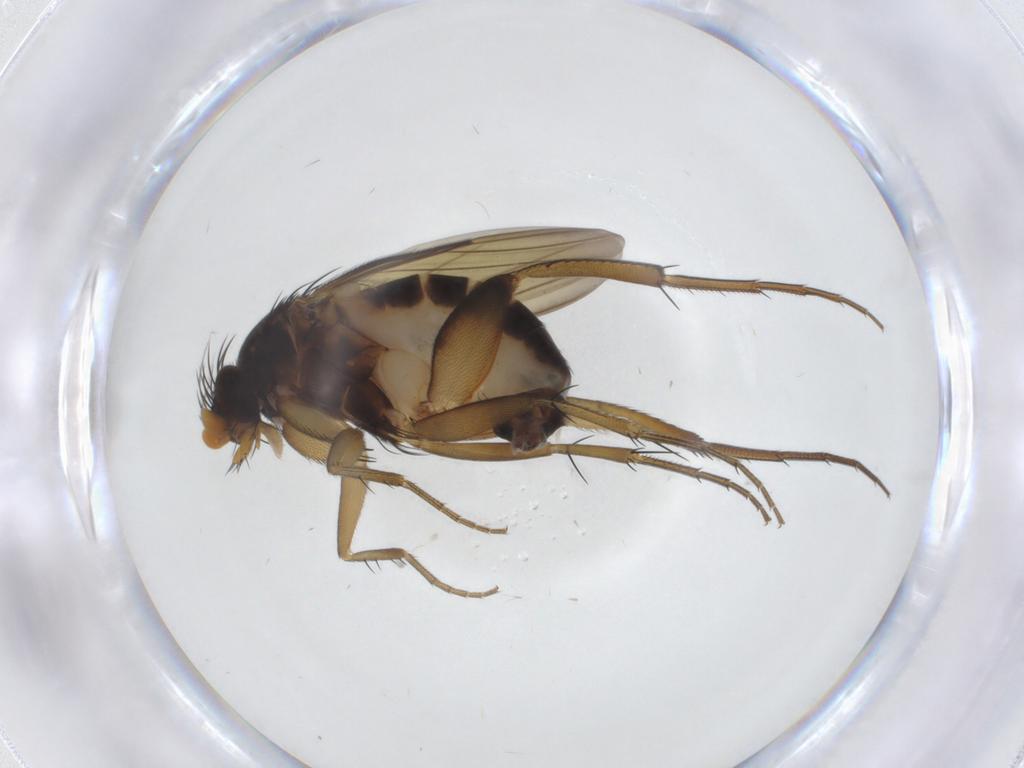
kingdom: Animalia
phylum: Arthropoda
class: Insecta
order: Diptera
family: Phoridae
